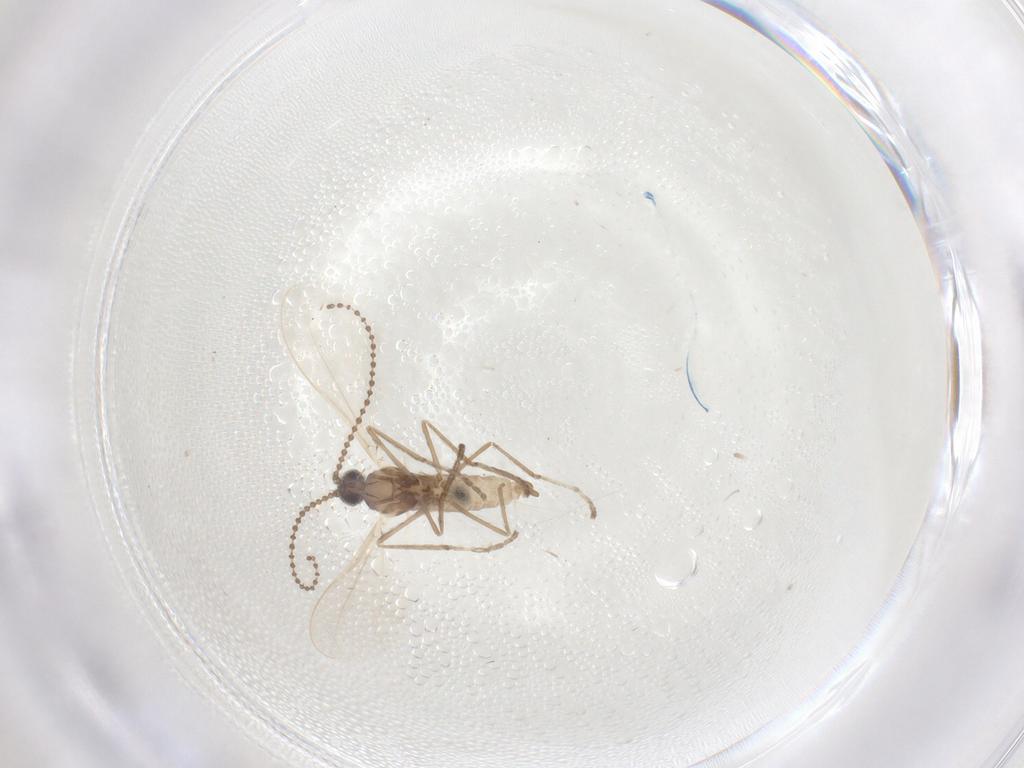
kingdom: Animalia
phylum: Arthropoda
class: Insecta
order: Diptera
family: Cecidomyiidae
